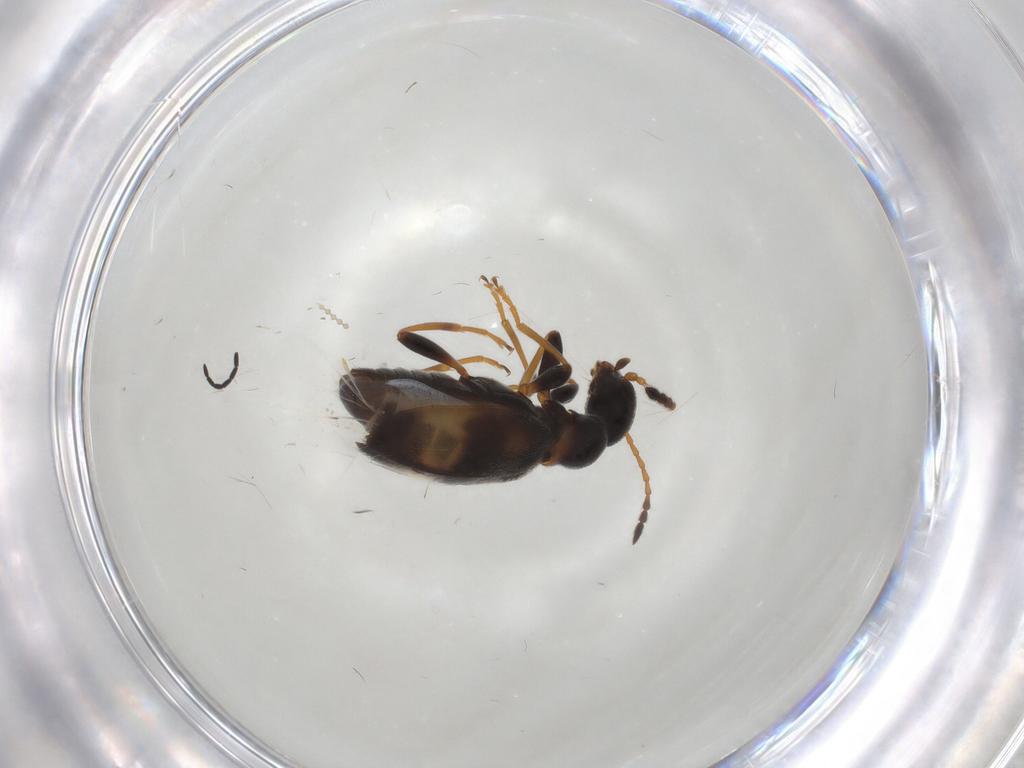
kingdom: Animalia
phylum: Arthropoda
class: Insecta
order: Coleoptera
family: Anthicidae
